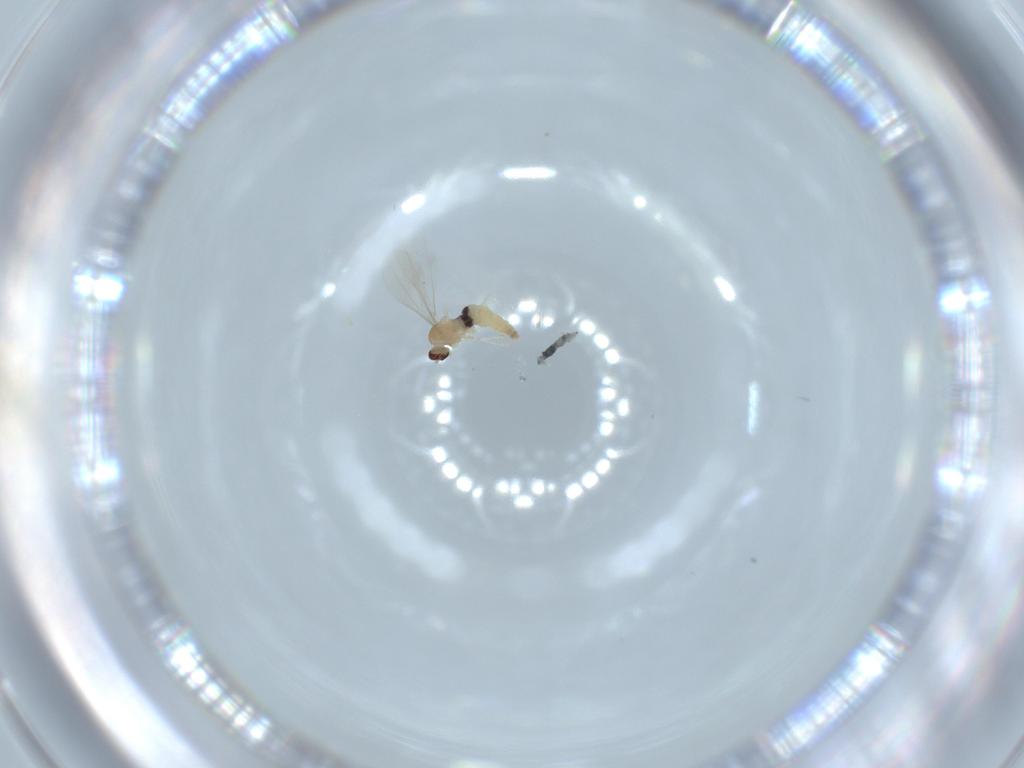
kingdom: Animalia
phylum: Arthropoda
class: Insecta
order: Diptera
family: Cecidomyiidae
